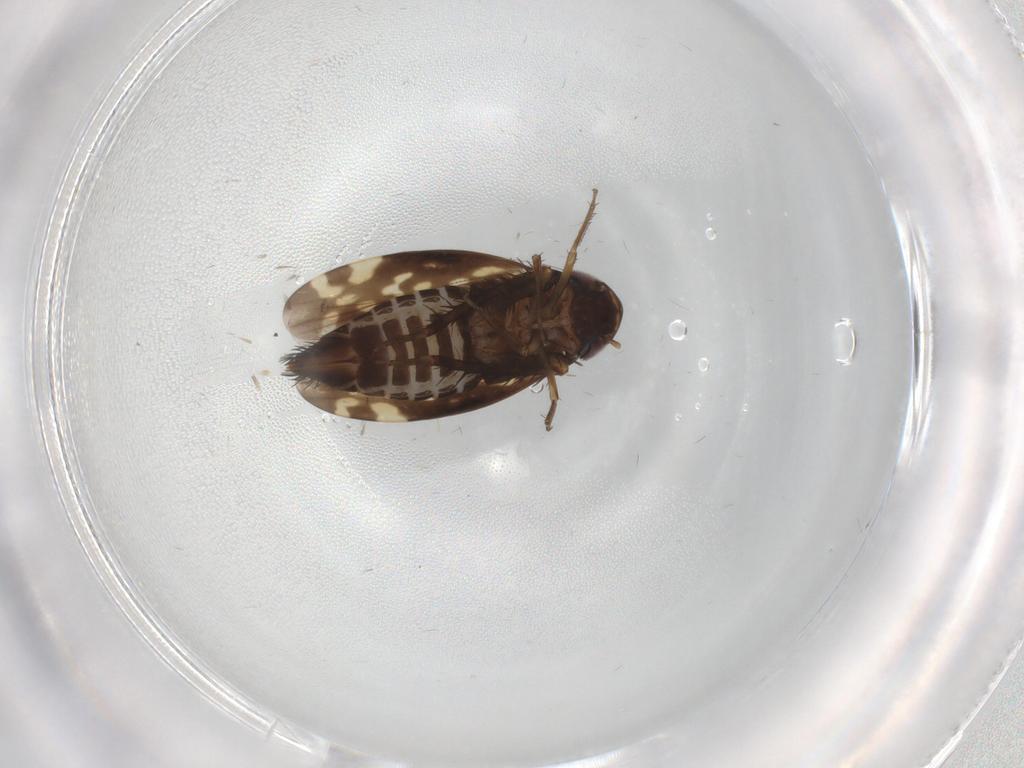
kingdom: Animalia
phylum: Arthropoda
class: Insecta
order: Hemiptera
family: Cicadellidae
